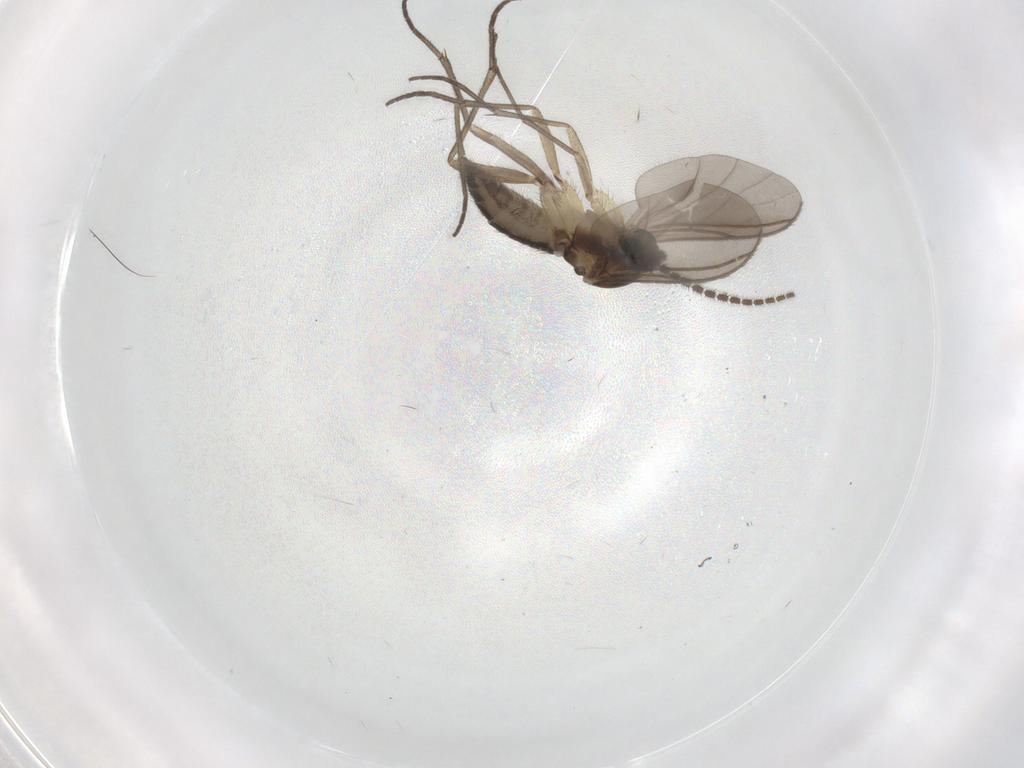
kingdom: Animalia
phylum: Arthropoda
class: Insecta
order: Diptera
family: Sciaridae
